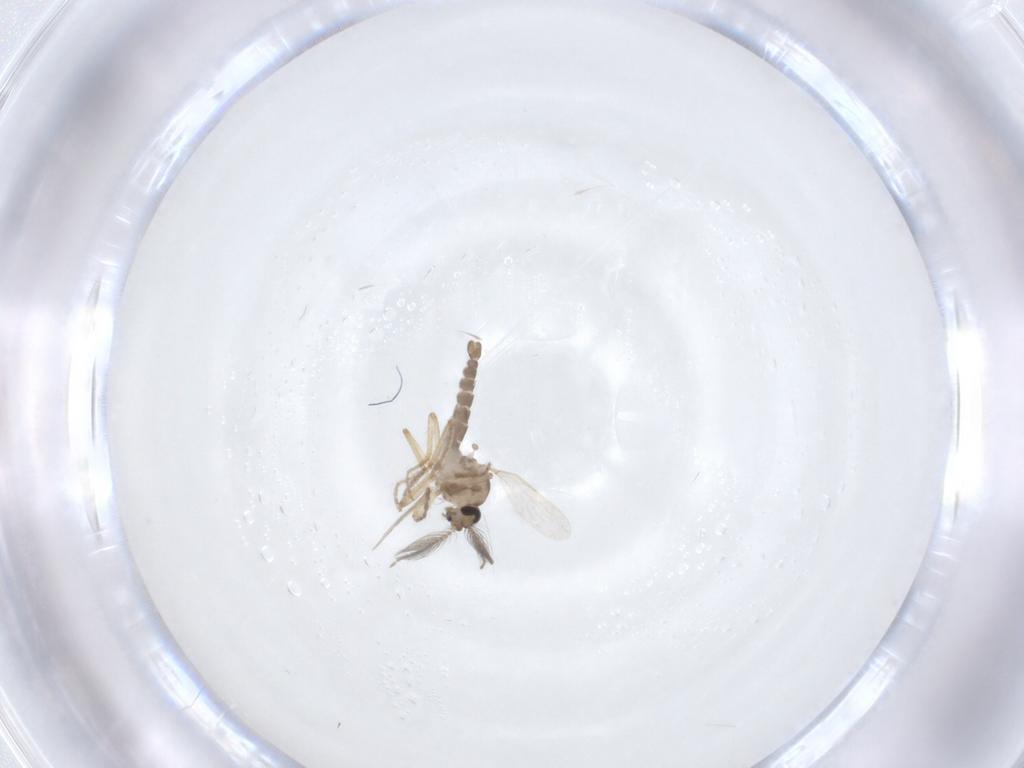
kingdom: Animalia
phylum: Arthropoda
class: Insecta
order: Diptera
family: Ceratopogonidae
